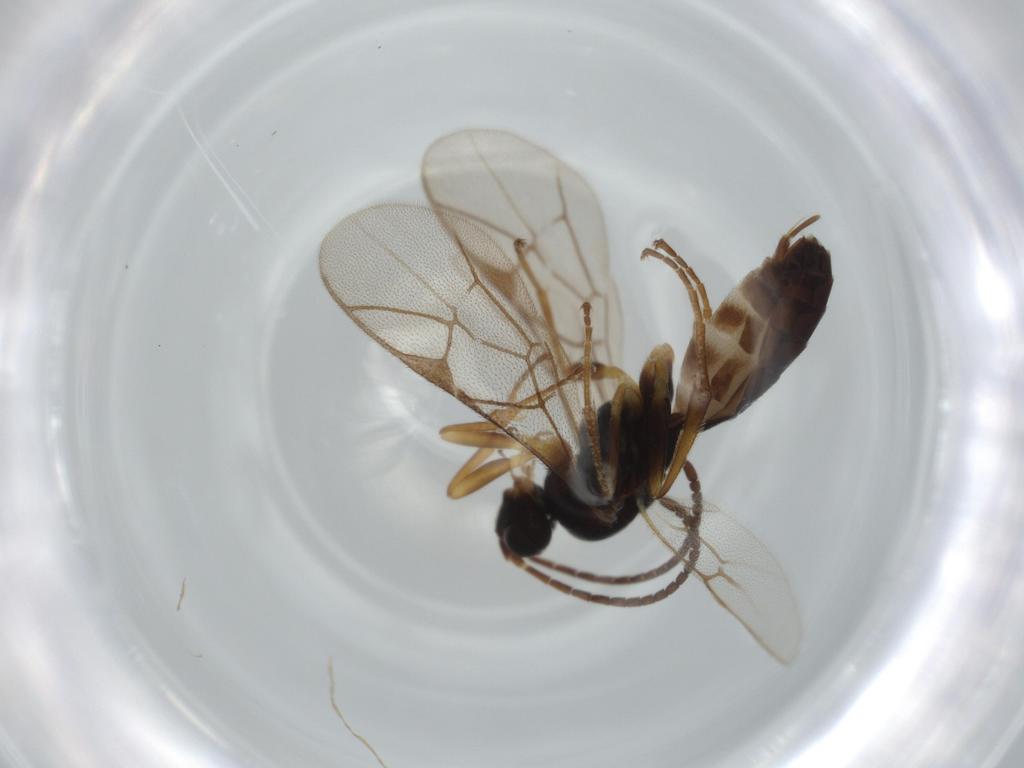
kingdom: Animalia
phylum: Arthropoda
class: Insecta
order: Hymenoptera
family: Ichneumonidae
